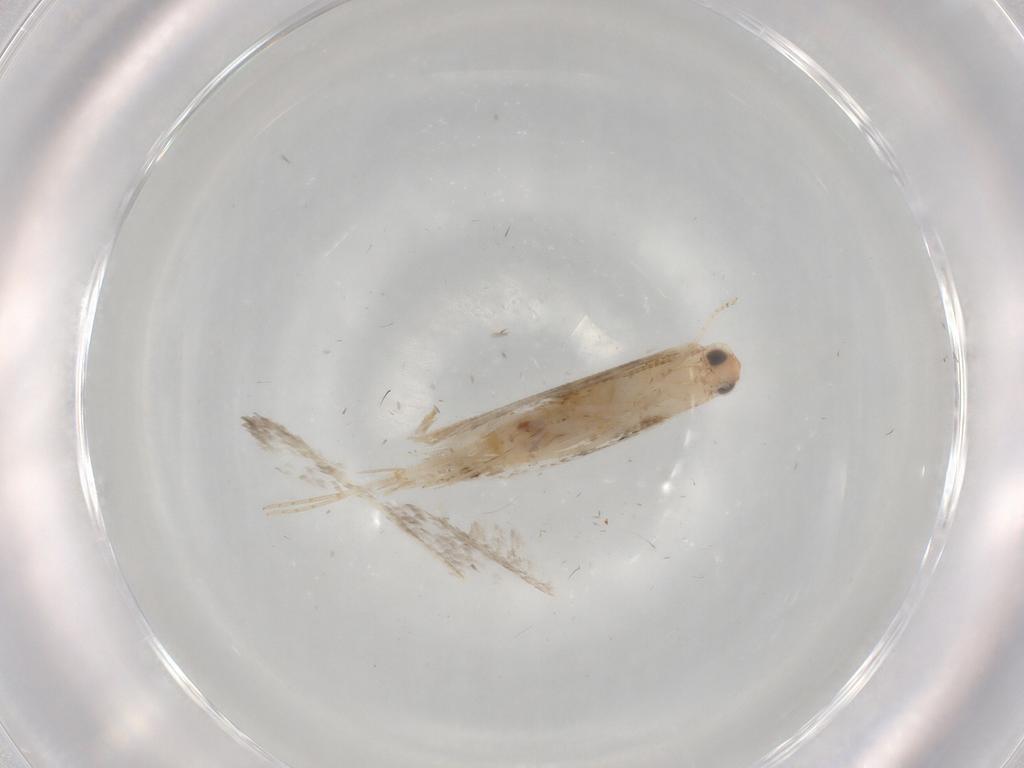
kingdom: Animalia
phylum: Arthropoda
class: Insecta
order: Lepidoptera
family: Tineidae
